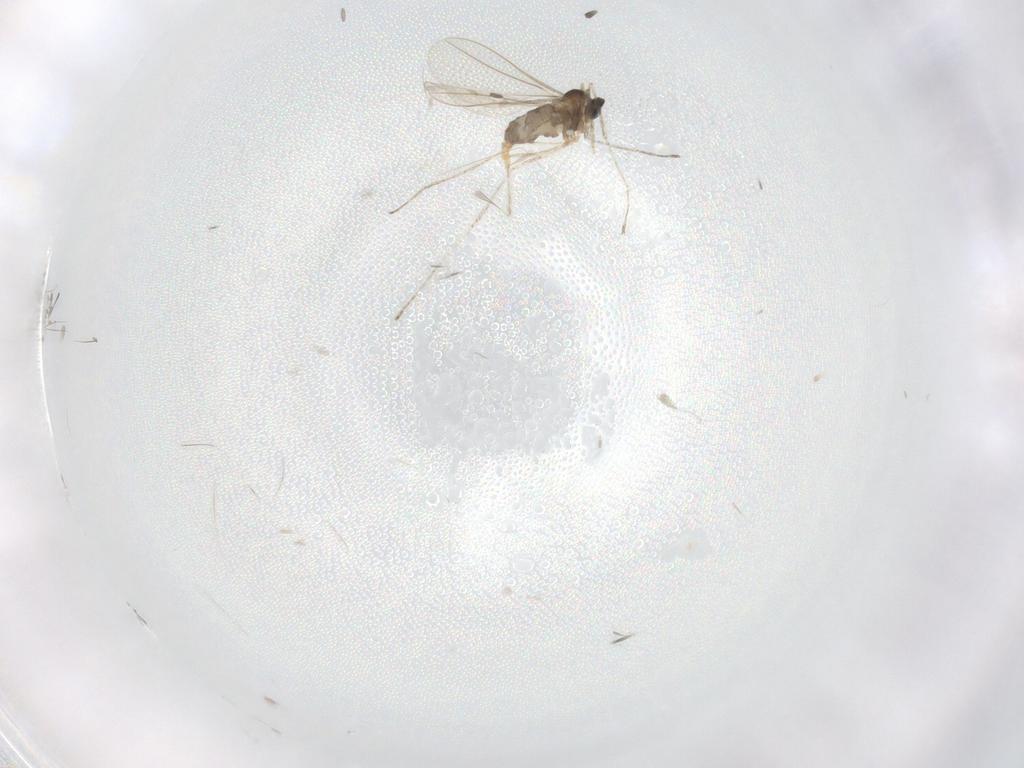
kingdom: Animalia
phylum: Arthropoda
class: Insecta
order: Diptera
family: Cecidomyiidae
